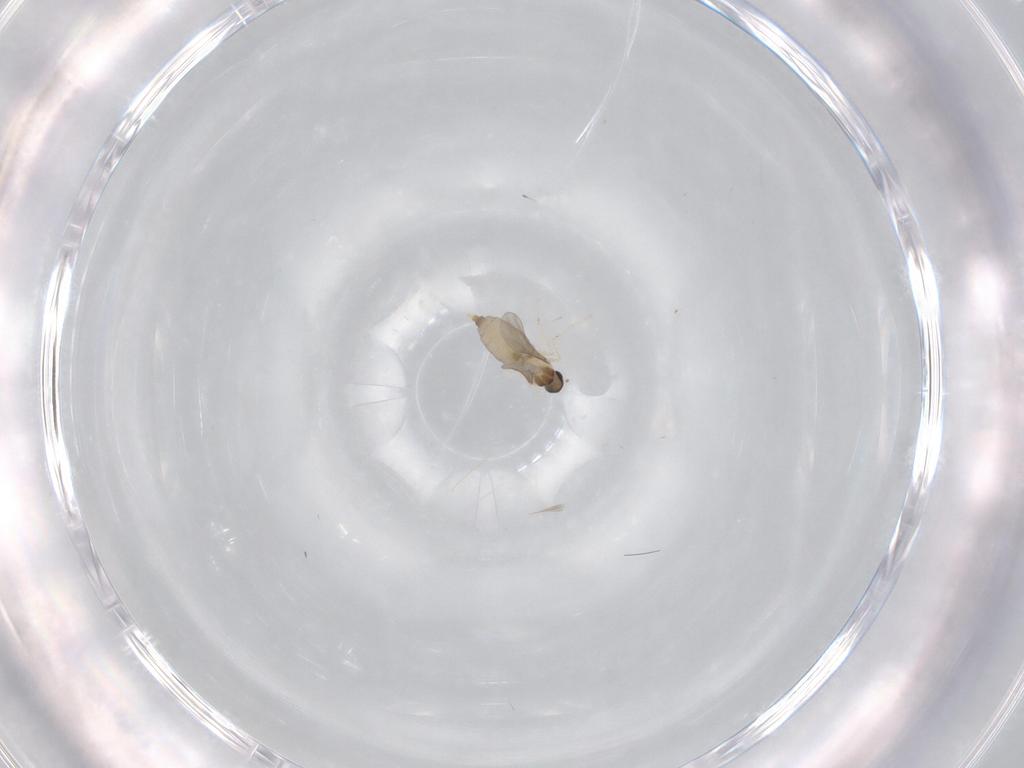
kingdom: Animalia
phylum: Arthropoda
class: Insecta
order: Diptera
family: Sciaridae
